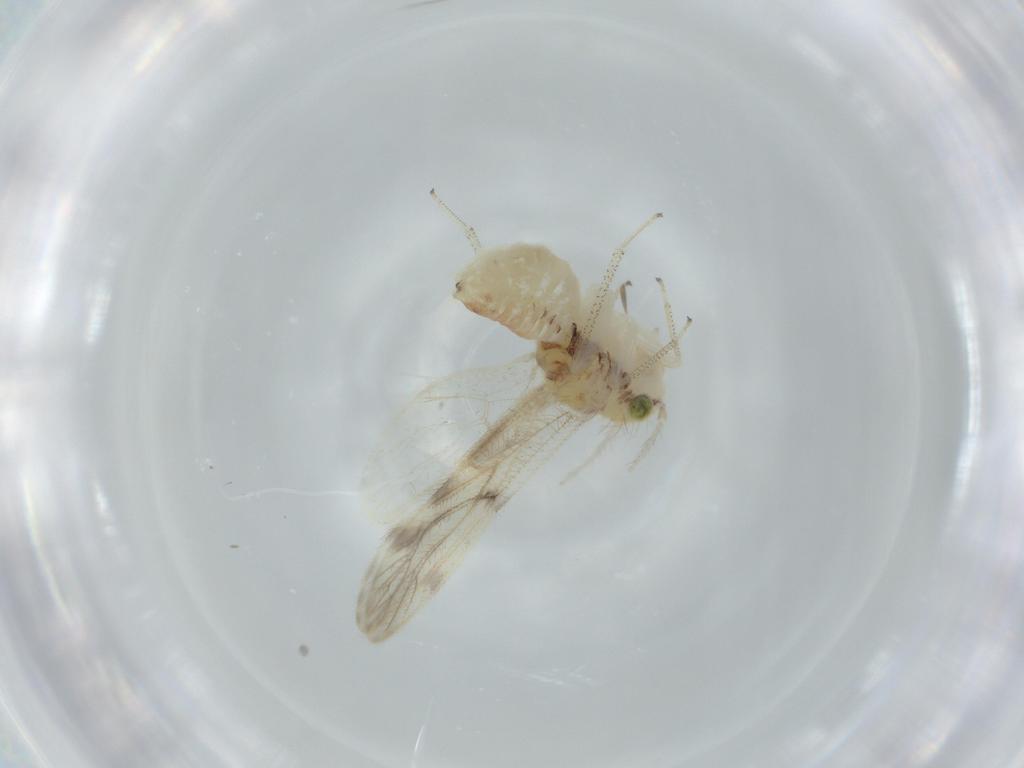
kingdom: Animalia
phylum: Arthropoda
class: Insecta
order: Psocodea
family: Pseudocaeciliidae
